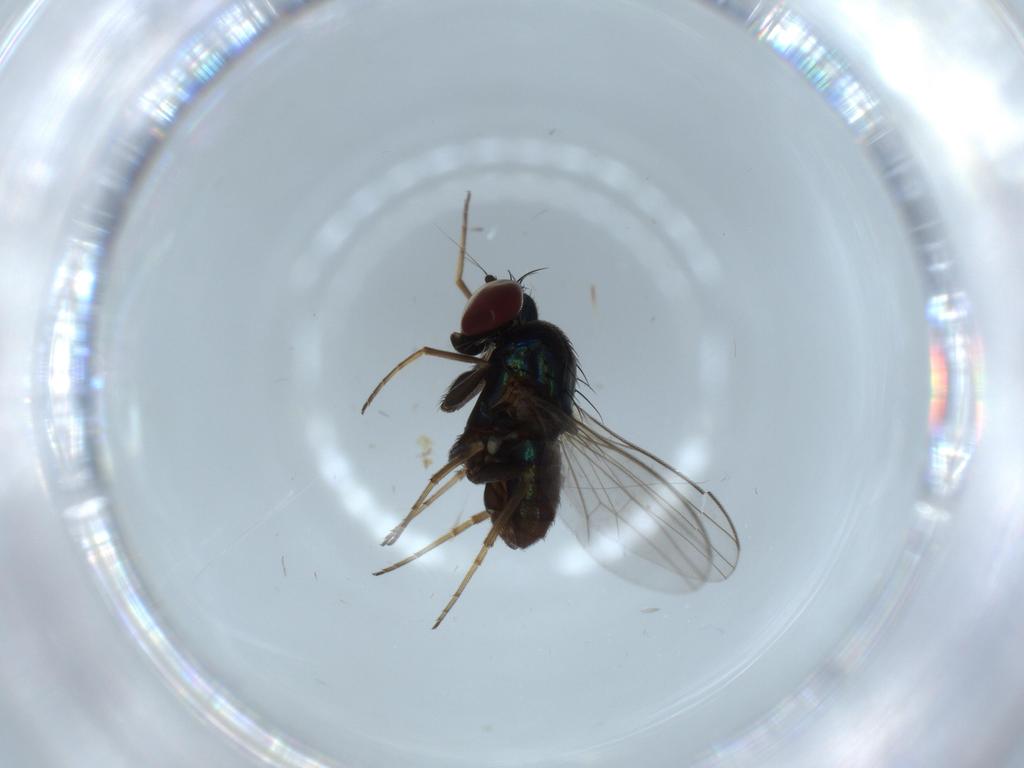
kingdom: Animalia
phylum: Arthropoda
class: Insecta
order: Diptera
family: Dolichopodidae
